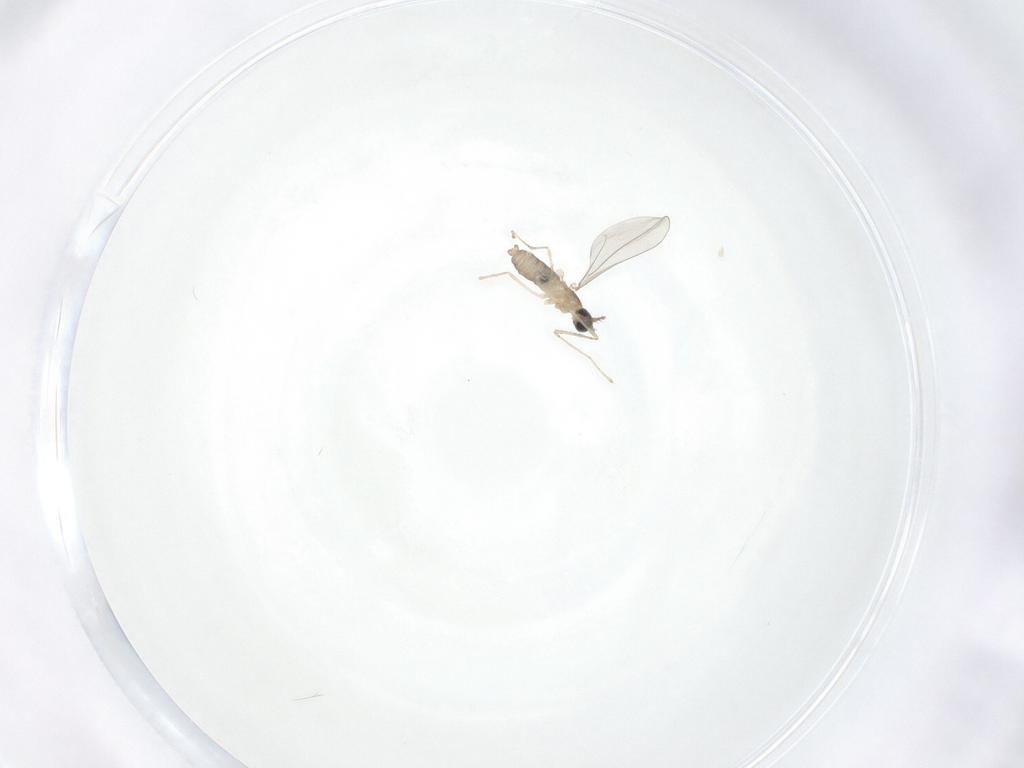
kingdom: Animalia
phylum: Arthropoda
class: Insecta
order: Diptera
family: Cecidomyiidae
